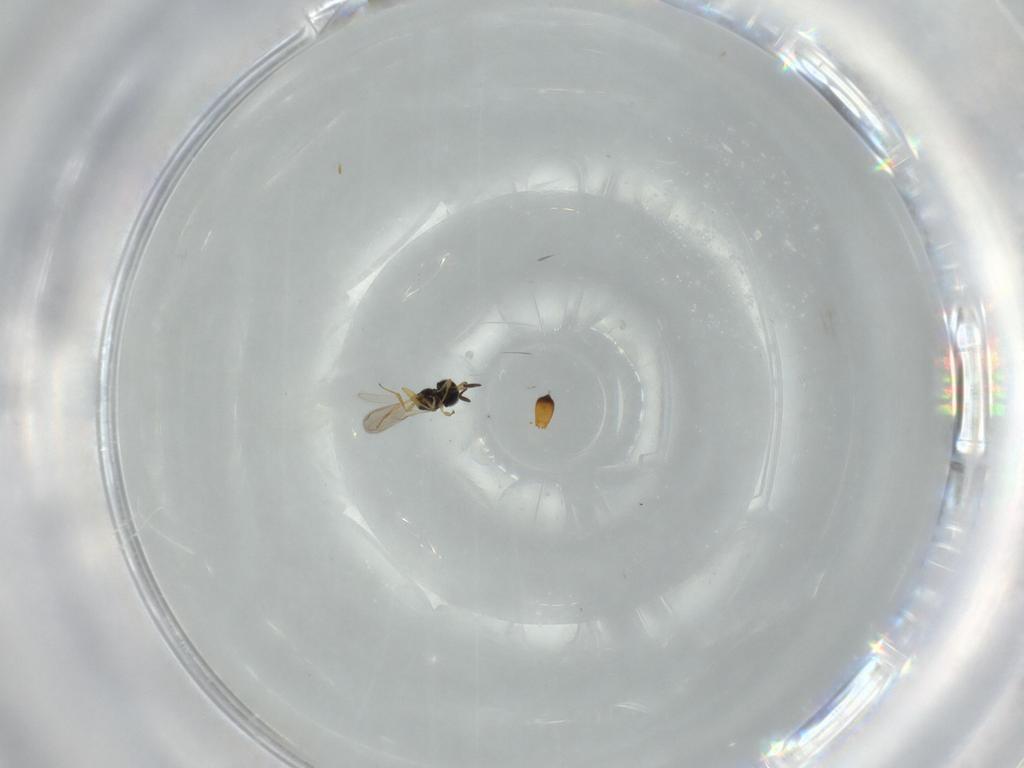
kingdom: Animalia
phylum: Arthropoda
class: Insecta
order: Hymenoptera
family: Scelionidae
